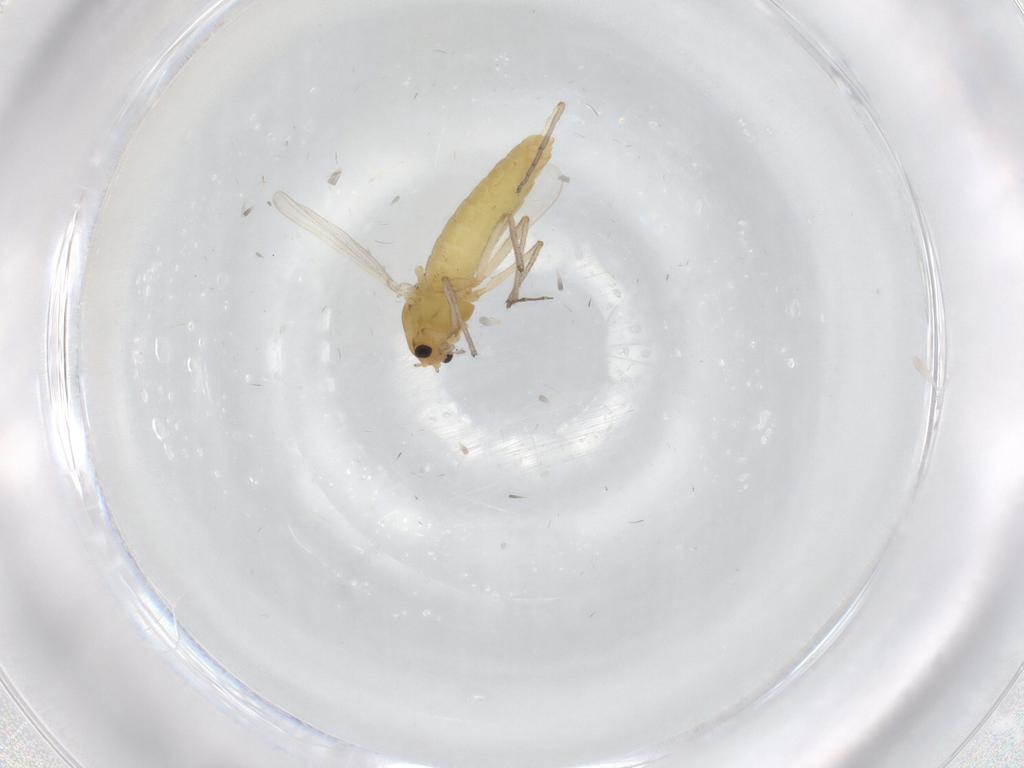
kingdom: Animalia
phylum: Arthropoda
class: Insecta
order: Diptera
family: Chironomidae
